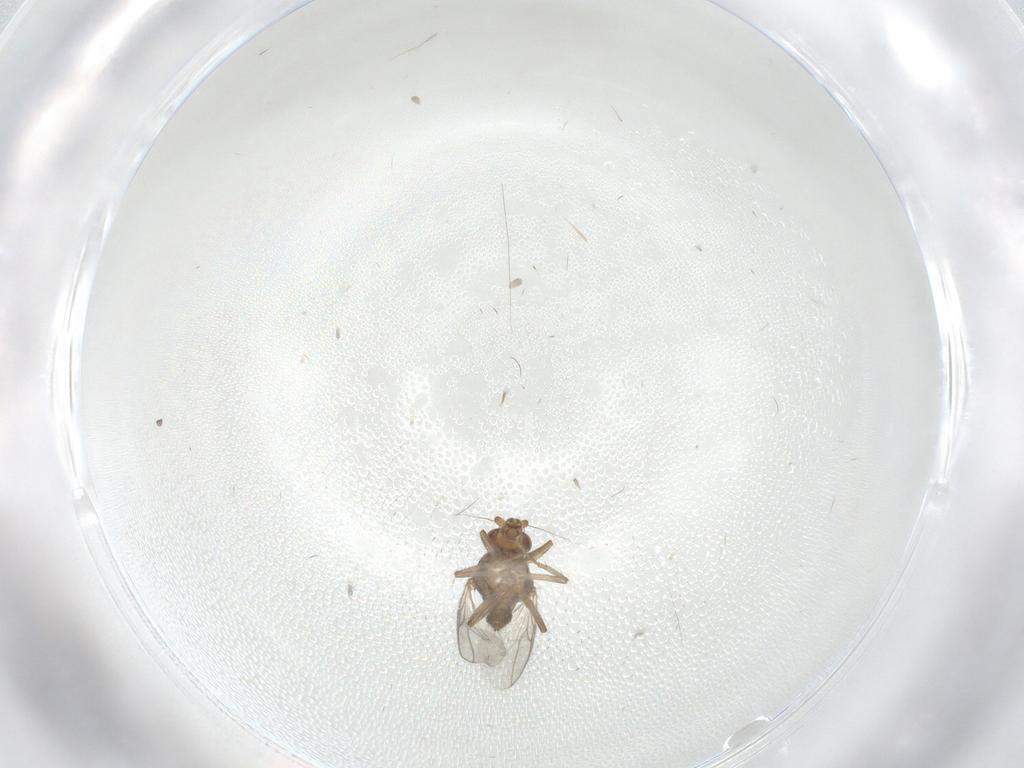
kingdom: Animalia
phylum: Arthropoda
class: Insecta
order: Diptera
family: Sphaeroceridae
